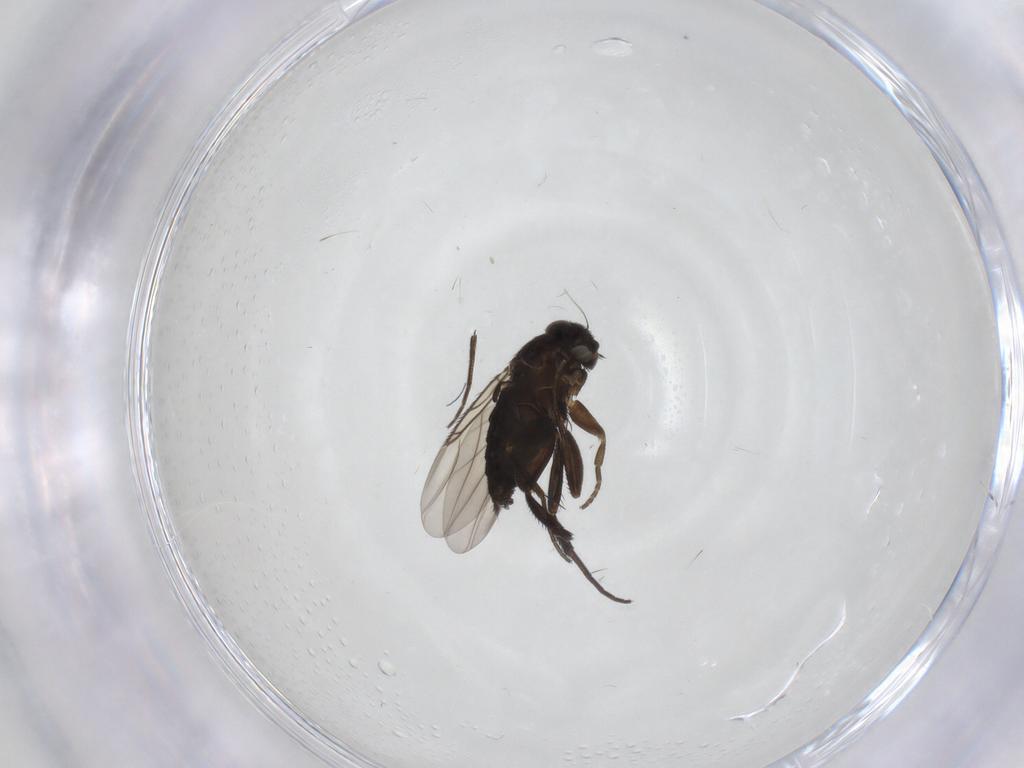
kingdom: Animalia
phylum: Arthropoda
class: Insecta
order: Diptera
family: Phoridae
